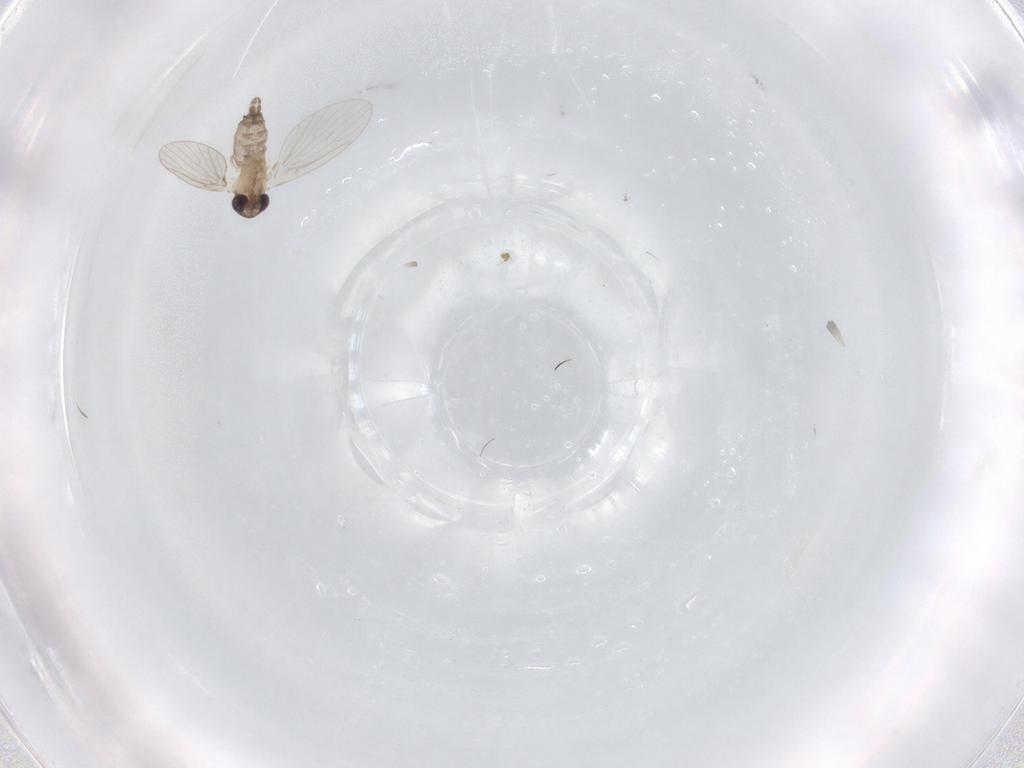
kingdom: Animalia
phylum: Arthropoda
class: Insecta
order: Diptera
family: Chironomidae
